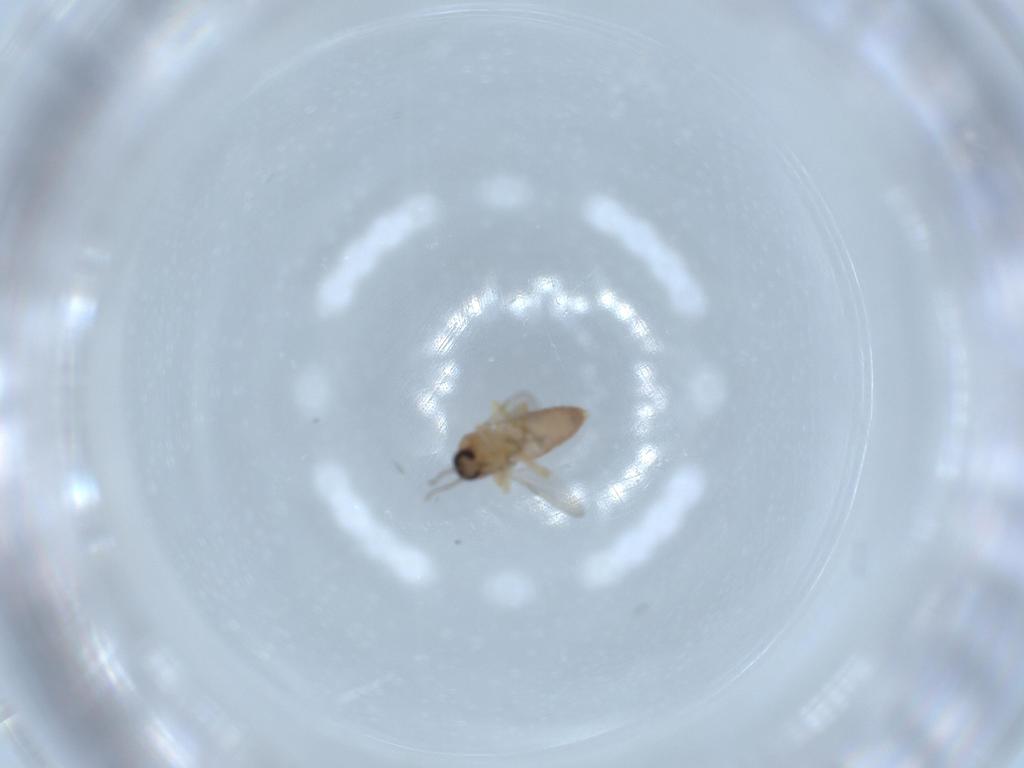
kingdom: Animalia
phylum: Arthropoda
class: Insecta
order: Diptera
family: Ceratopogonidae
